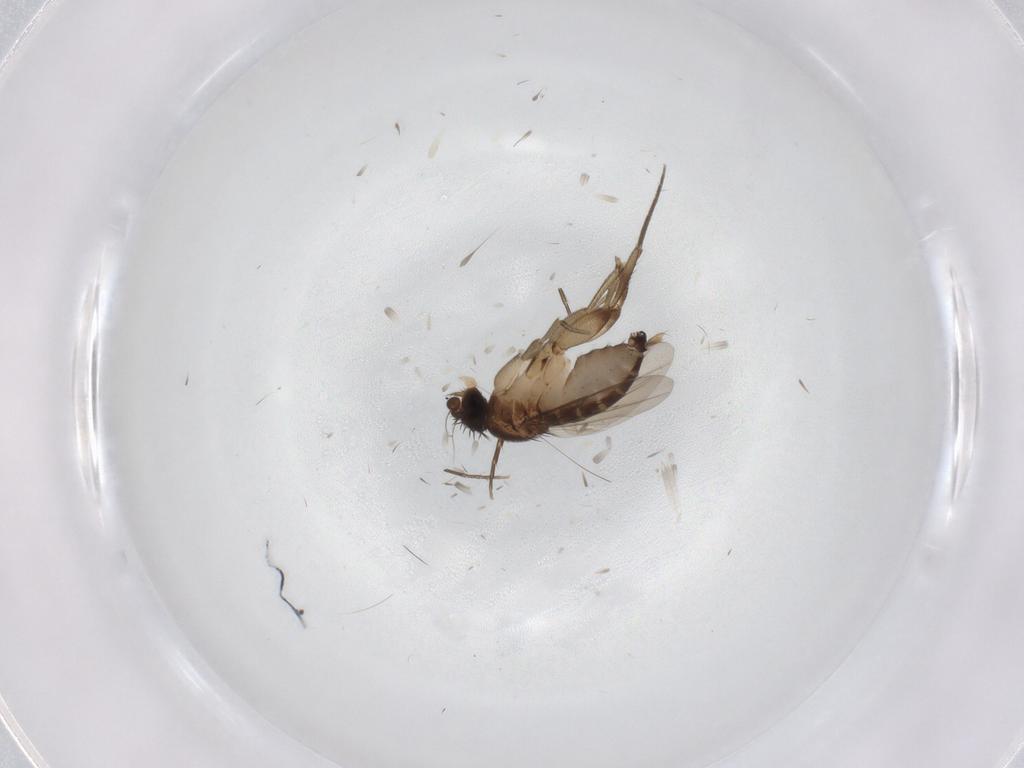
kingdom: Animalia
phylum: Arthropoda
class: Insecta
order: Diptera
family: Phoridae
